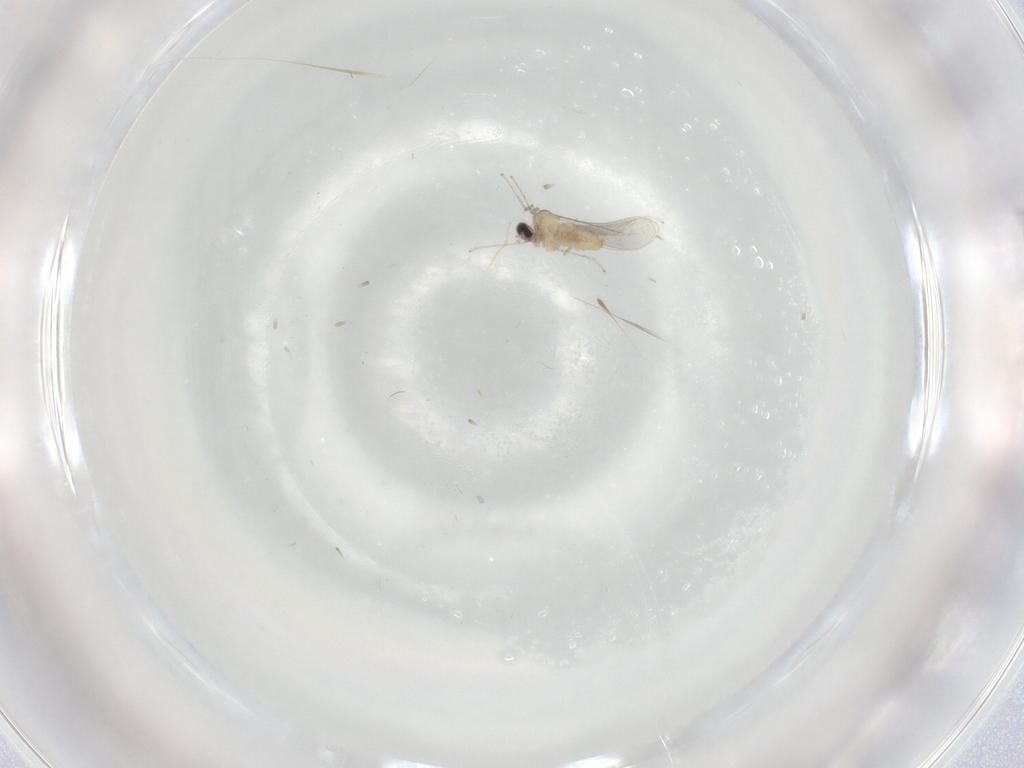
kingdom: Animalia
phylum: Arthropoda
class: Insecta
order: Diptera
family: Cecidomyiidae
